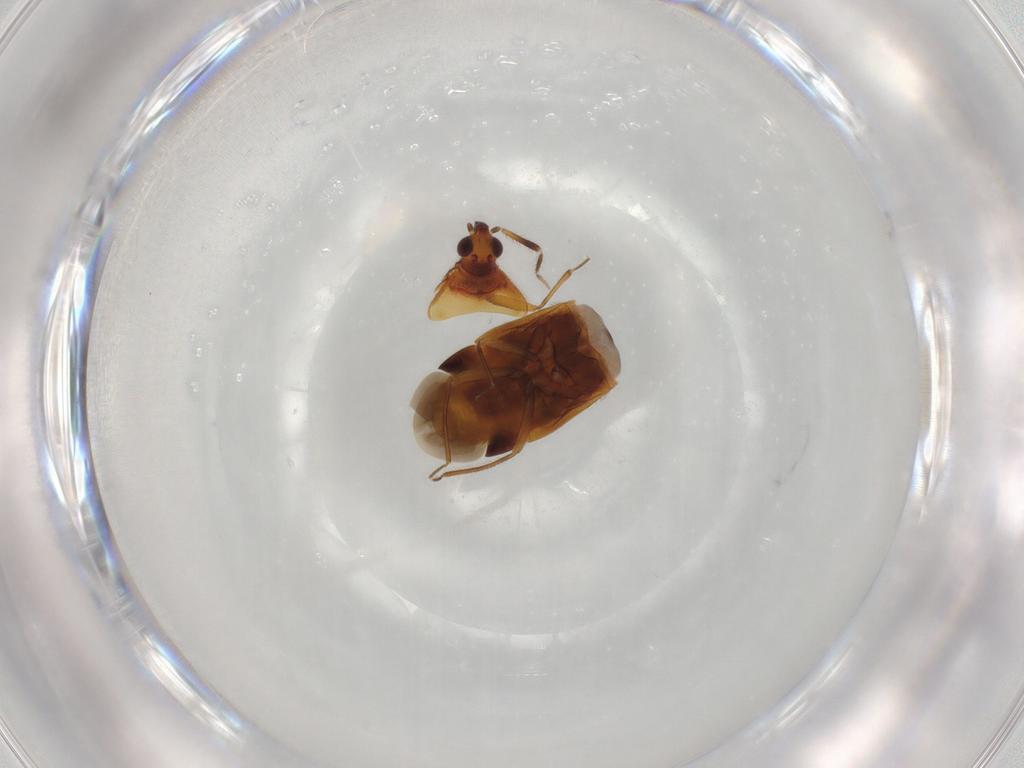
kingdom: Animalia
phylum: Arthropoda
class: Insecta
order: Hemiptera
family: Anthocoridae
